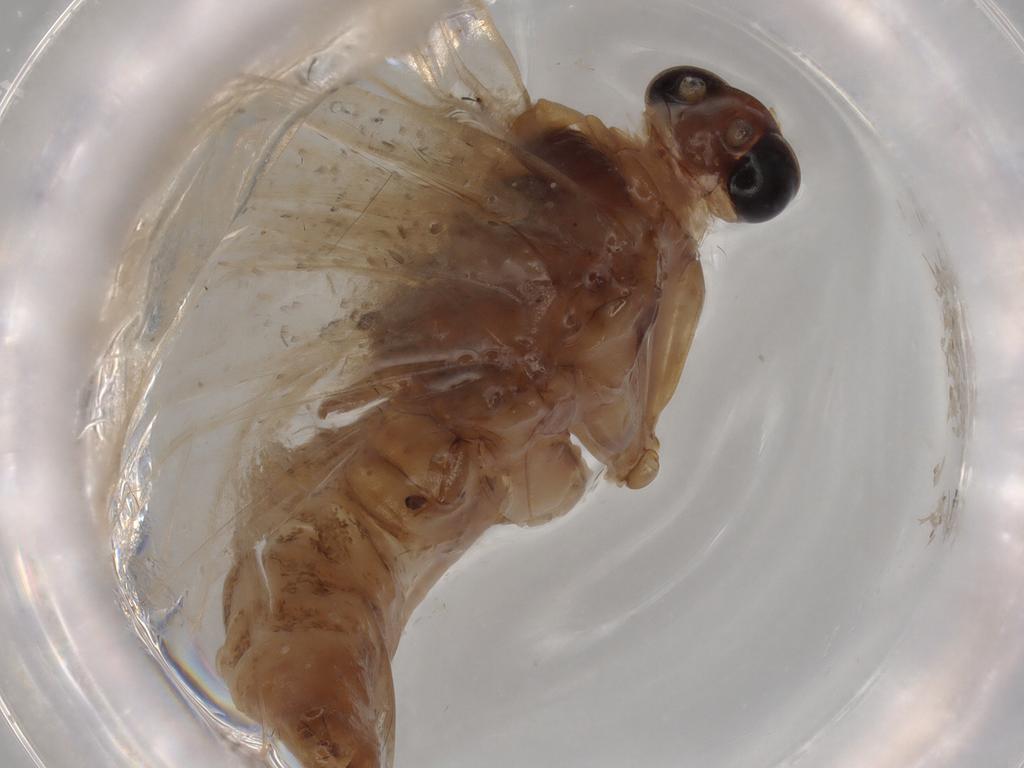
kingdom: Animalia
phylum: Arthropoda
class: Insecta
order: Lepidoptera
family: Geometridae
